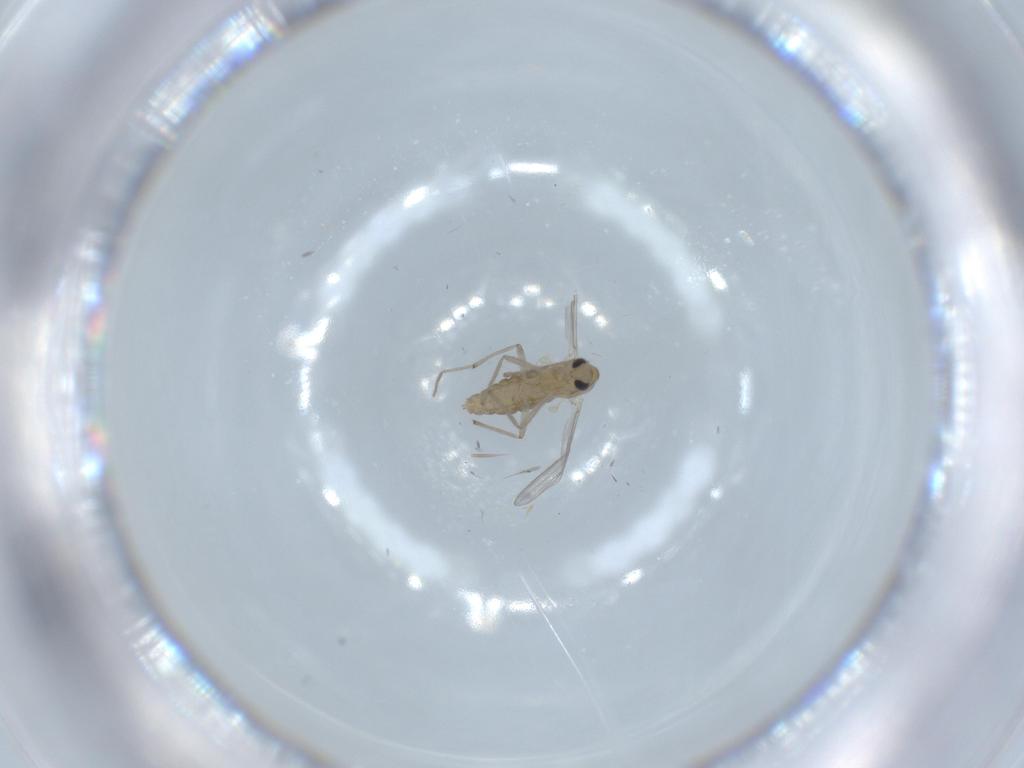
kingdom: Animalia
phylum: Arthropoda
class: Insecta
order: Diptera
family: Chironomidae
